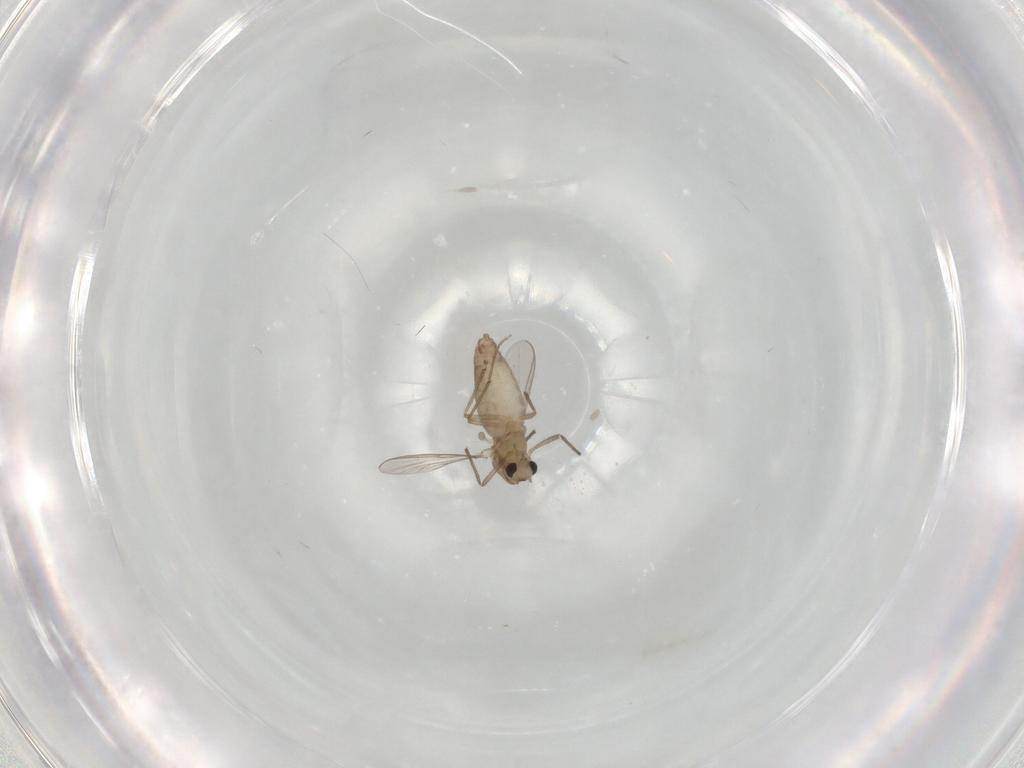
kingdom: Animalia
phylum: Arthropoda
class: Insecta
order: Diptera
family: Chironomidae
